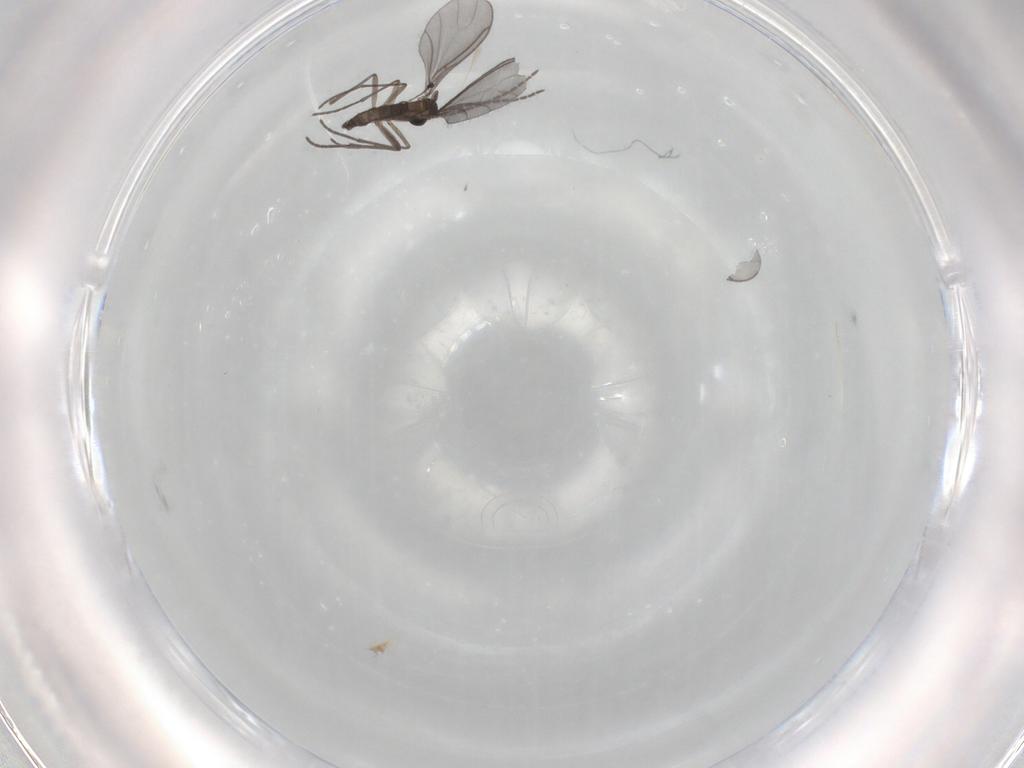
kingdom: Animalia
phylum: Arthropoda
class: Insecta
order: Diptera
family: Sciaridae
